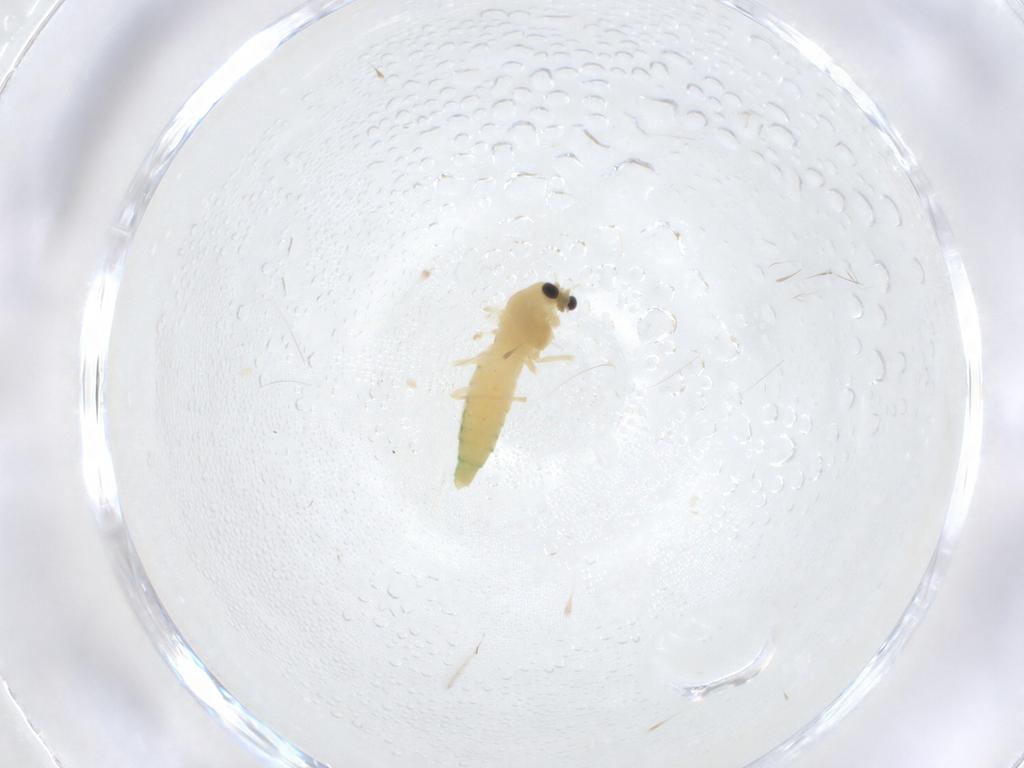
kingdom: Animalia
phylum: Arthropoda
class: Insecta
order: Diptera
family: Chironomidae
